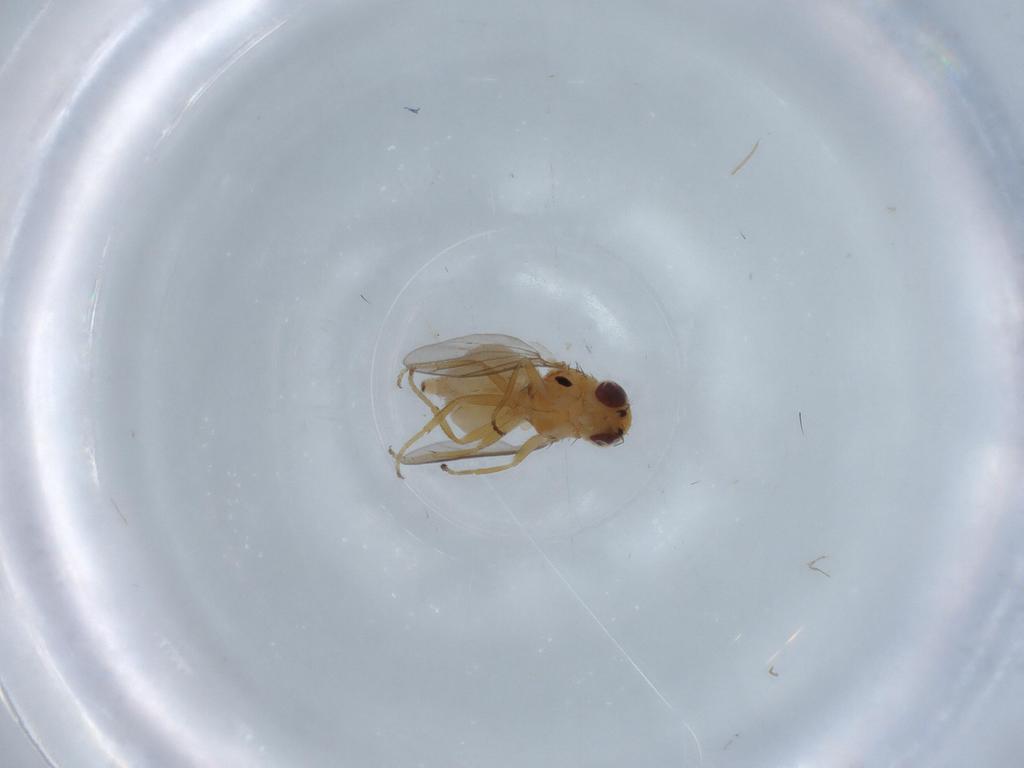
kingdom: Animalia
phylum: Arthropoda
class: Insecta
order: Diptera
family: Chloropidae
